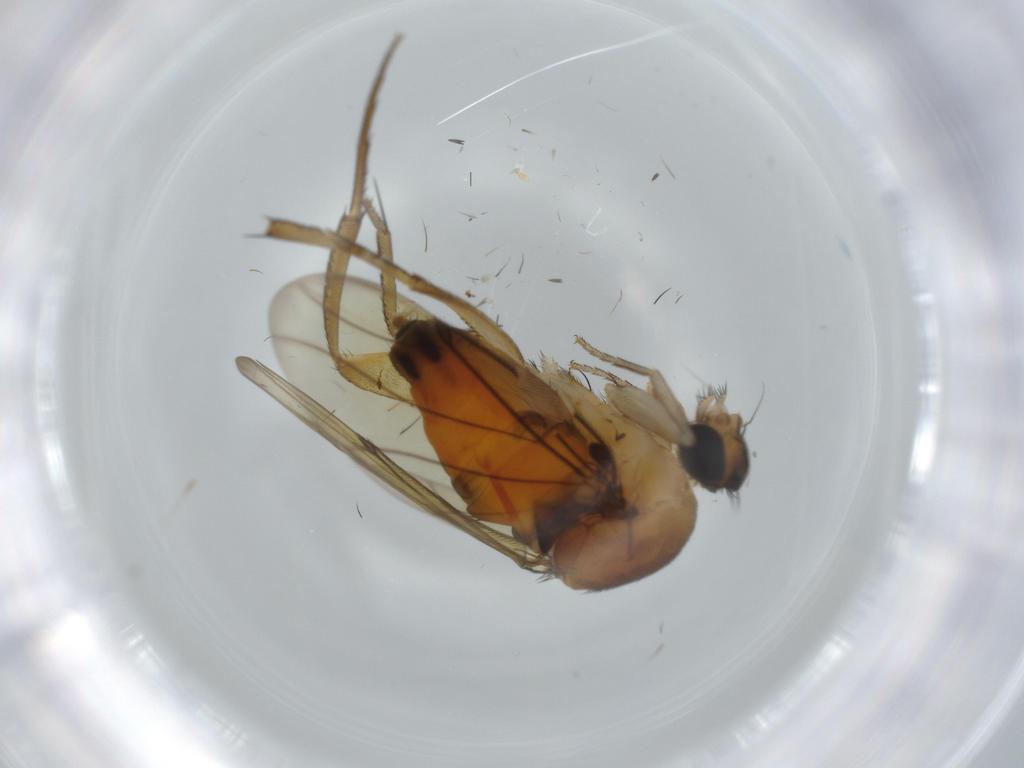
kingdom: Animalia
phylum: Arthropoda
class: Insecta
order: Diptera
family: Phoridae
